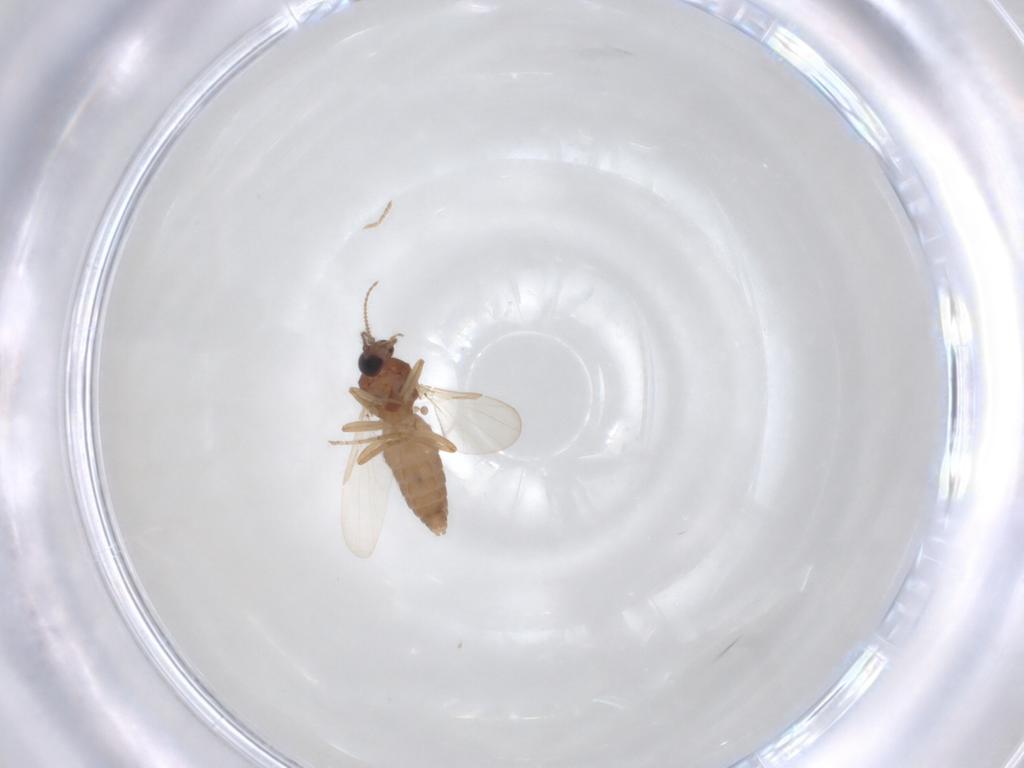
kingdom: Animalia
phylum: Arthropoda
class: Insecta
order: Diptera
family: Ceratopogonidae
